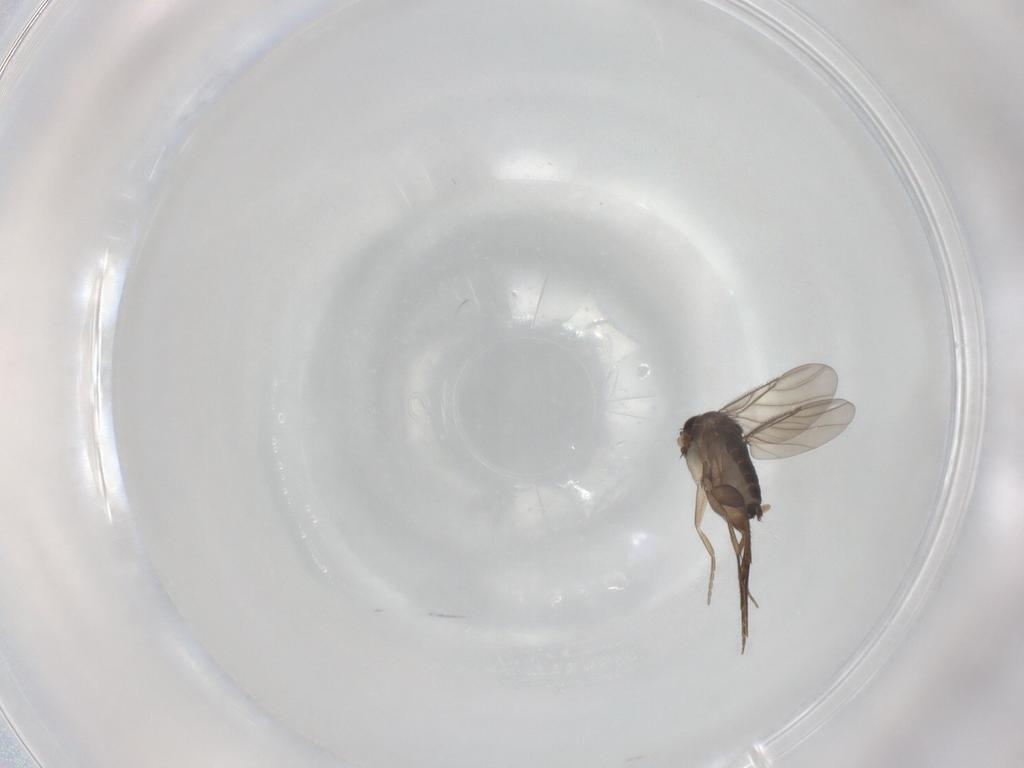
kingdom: Animalia
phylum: Arthropoda
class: Insecta
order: Diptera
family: Phoridae
